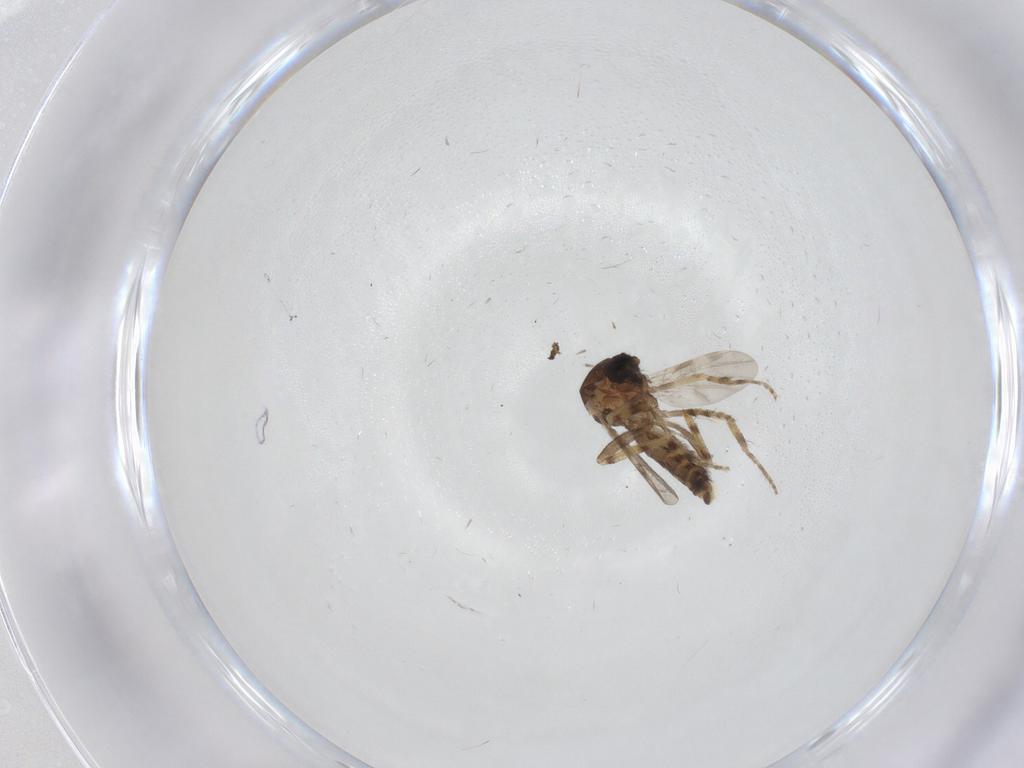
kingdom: Animalia
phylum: Arthropoda
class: Insecta
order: Diptera
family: Ceratopogonidae
